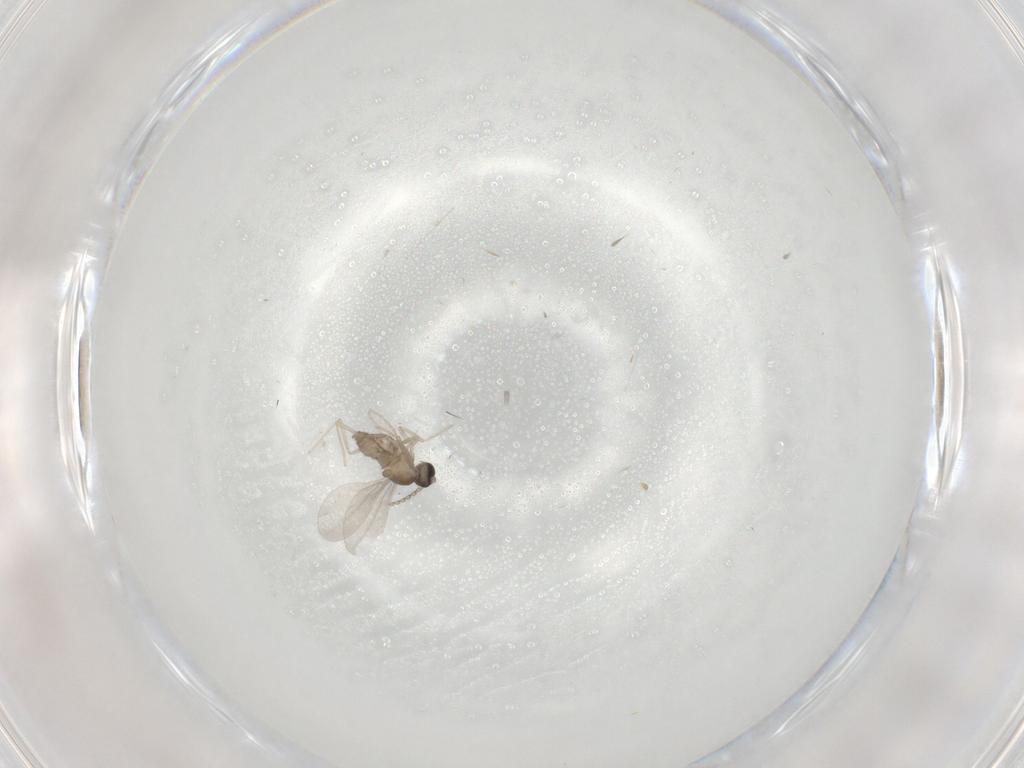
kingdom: Animalia
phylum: Arthropoda
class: Insecta
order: Diptera
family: Cecidomyiidae
